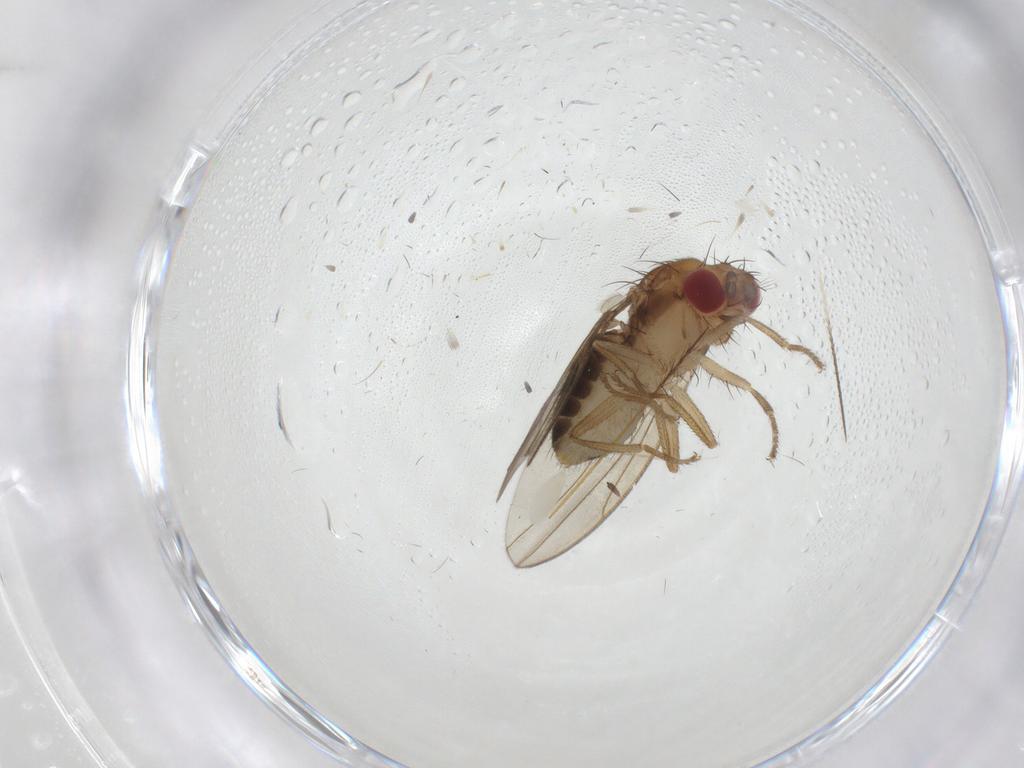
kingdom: Animalia
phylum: Arthropoda
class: Insecta
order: Diptera
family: Drosophilidae
